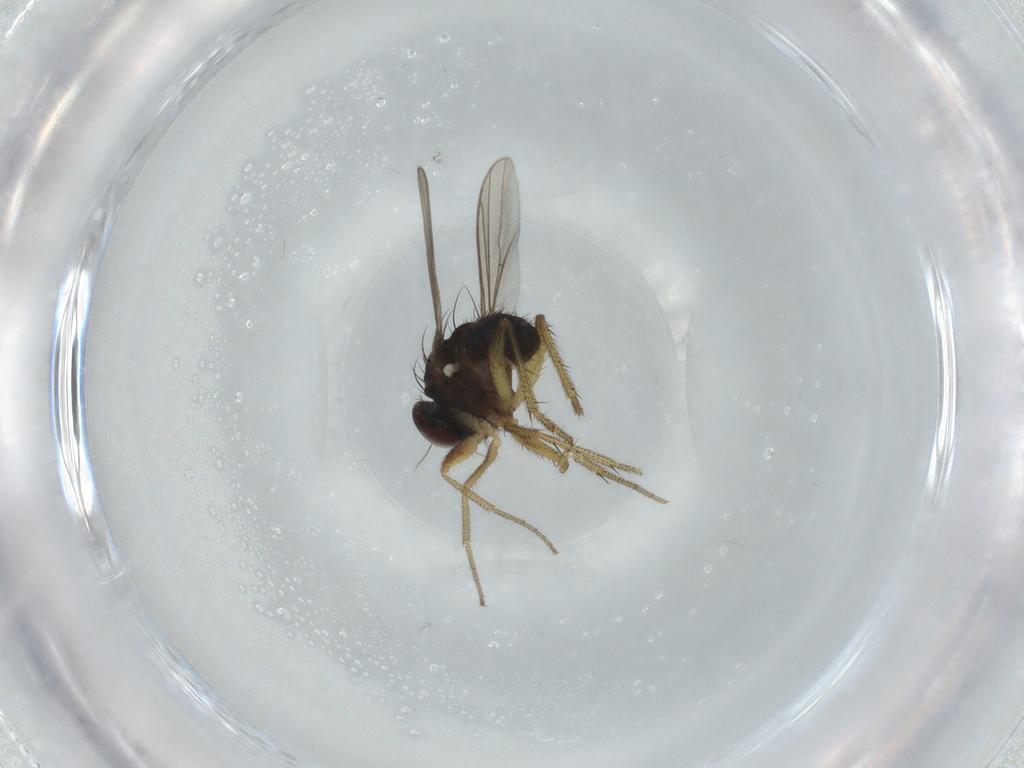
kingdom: Animalia
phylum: Arthropoda
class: Insecta
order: Diptera
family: Dolichopodidae
